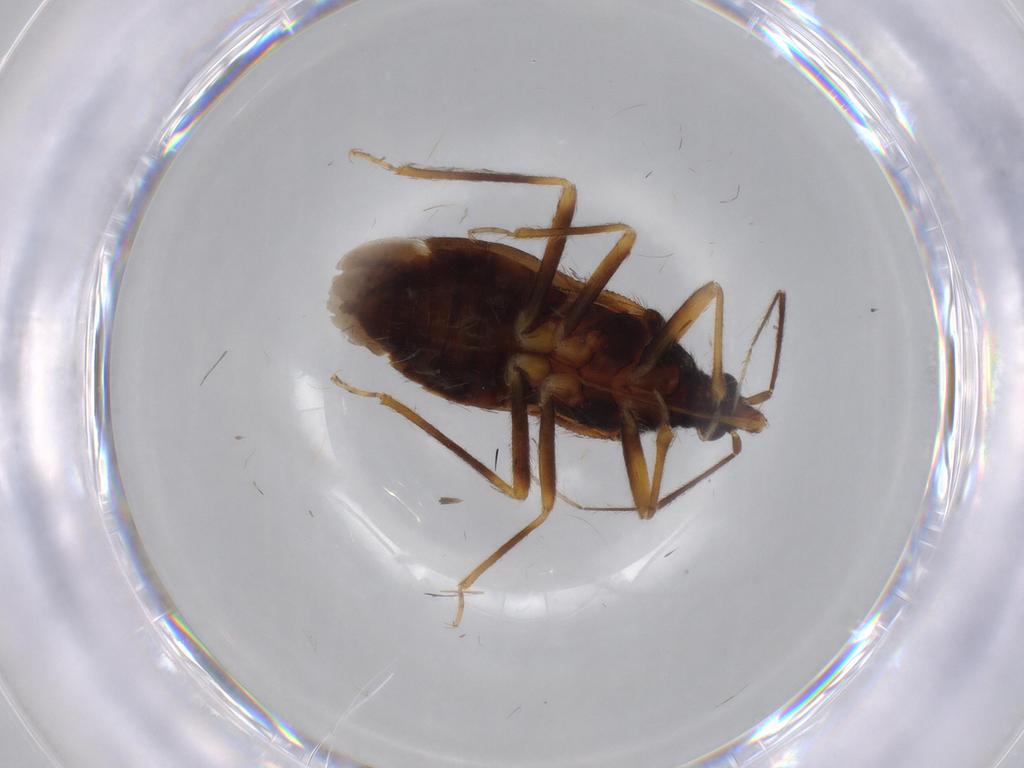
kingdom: Animalia
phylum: Arthropoda
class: Insecta
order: Hemiptera
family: Anthocoridae
